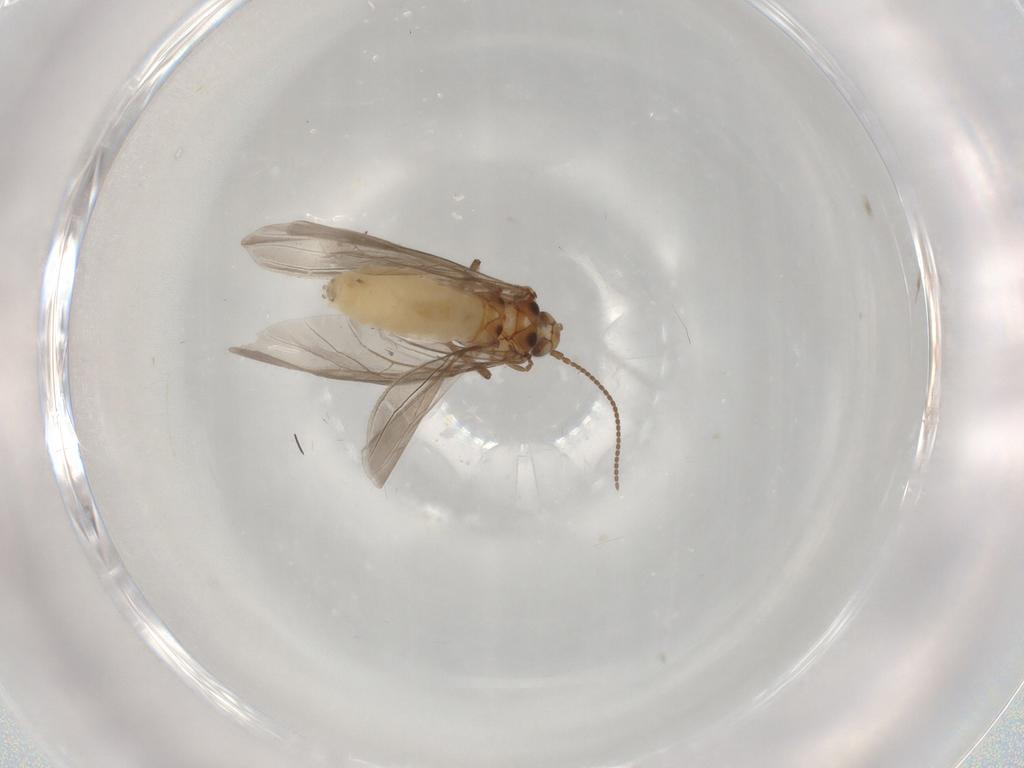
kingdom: Animalia
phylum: Arthropoda
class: Insecta
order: Neuroptera
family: Coniopterygidae
